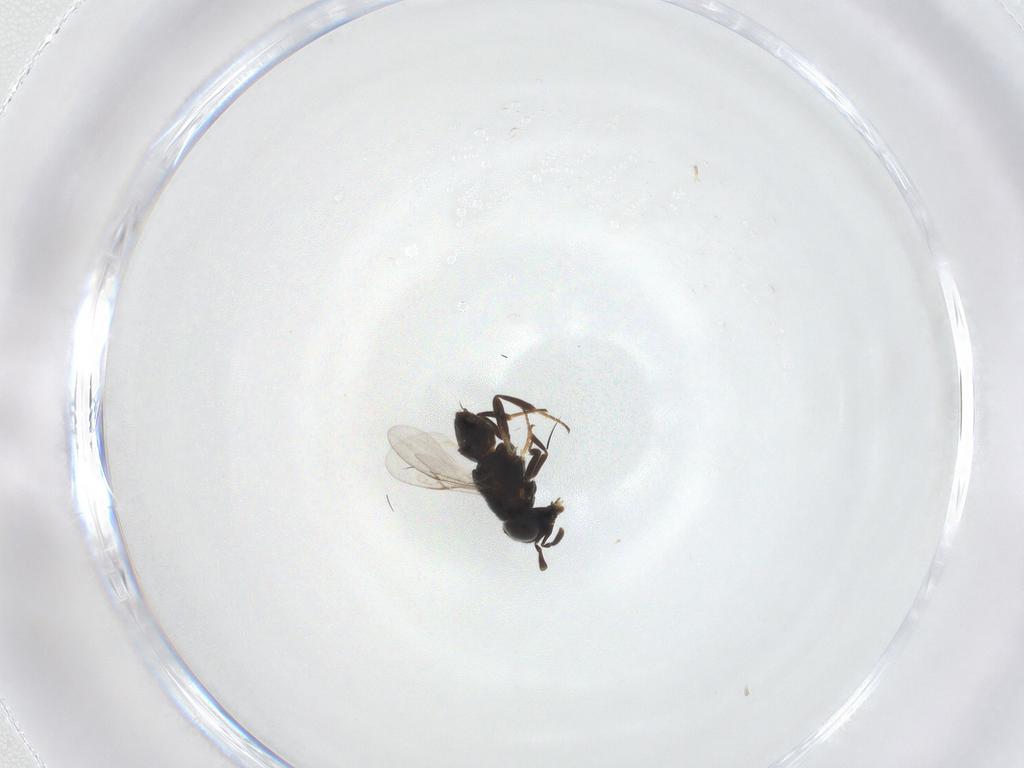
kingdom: Animalia
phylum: Arthropoda
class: Insecta
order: Hymenoptera
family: Encyrtidae
